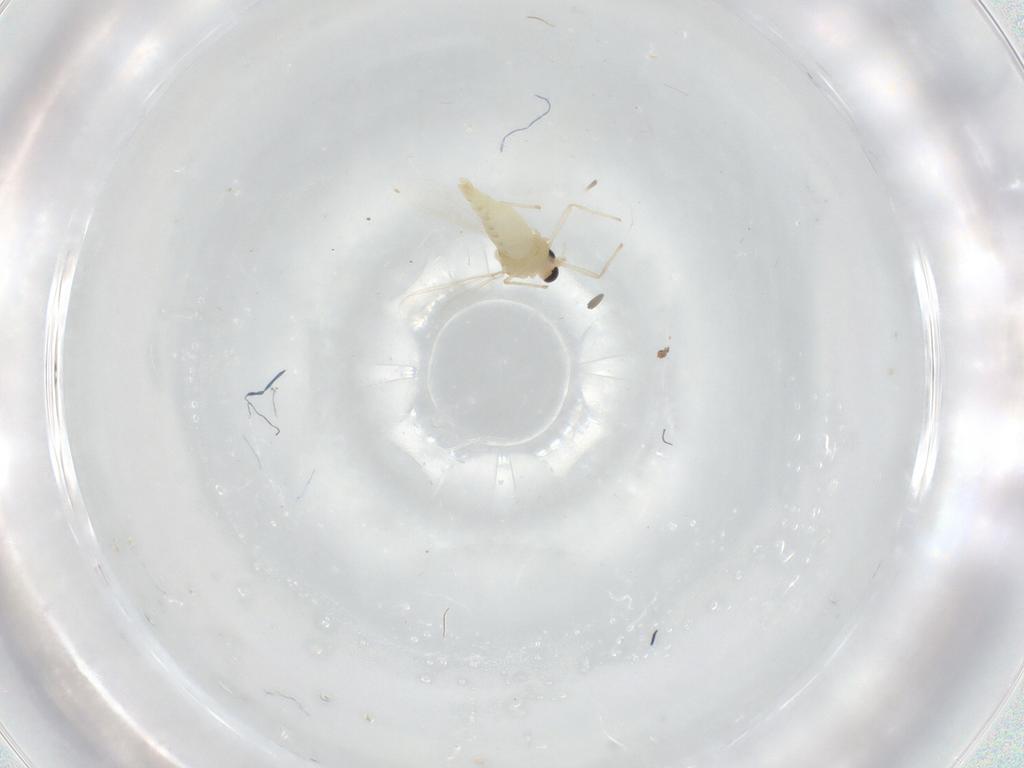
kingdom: Animalia
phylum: Arthropoda
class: Insecta
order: Diptera
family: Chironomidae
